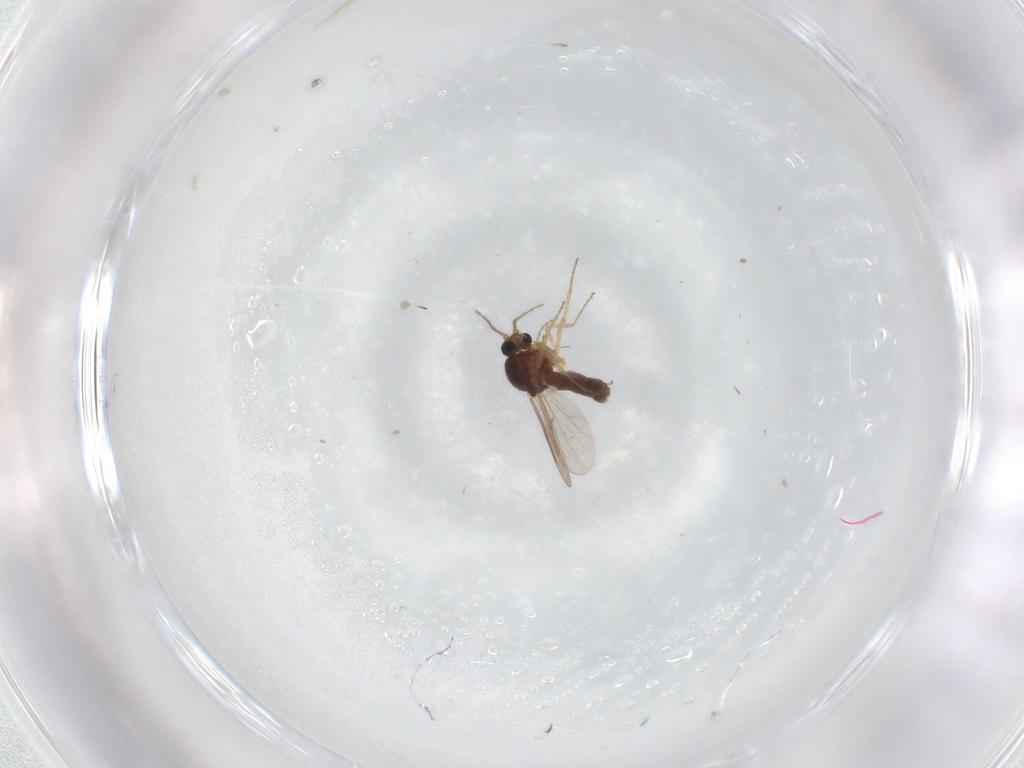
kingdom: Animalia
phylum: Arthropoda
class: Insecta
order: Diptera
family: Ceratopogonidae
